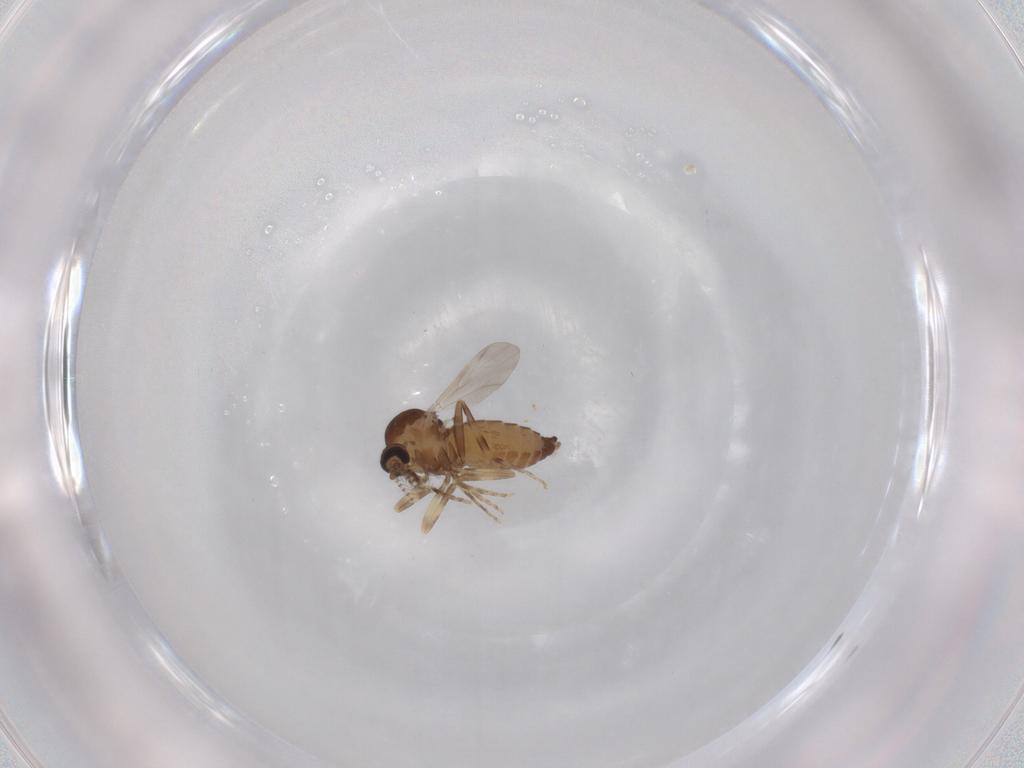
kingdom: Animalia
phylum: Arthropoda
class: Insecta
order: Diptera
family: Ceratopogonidae
